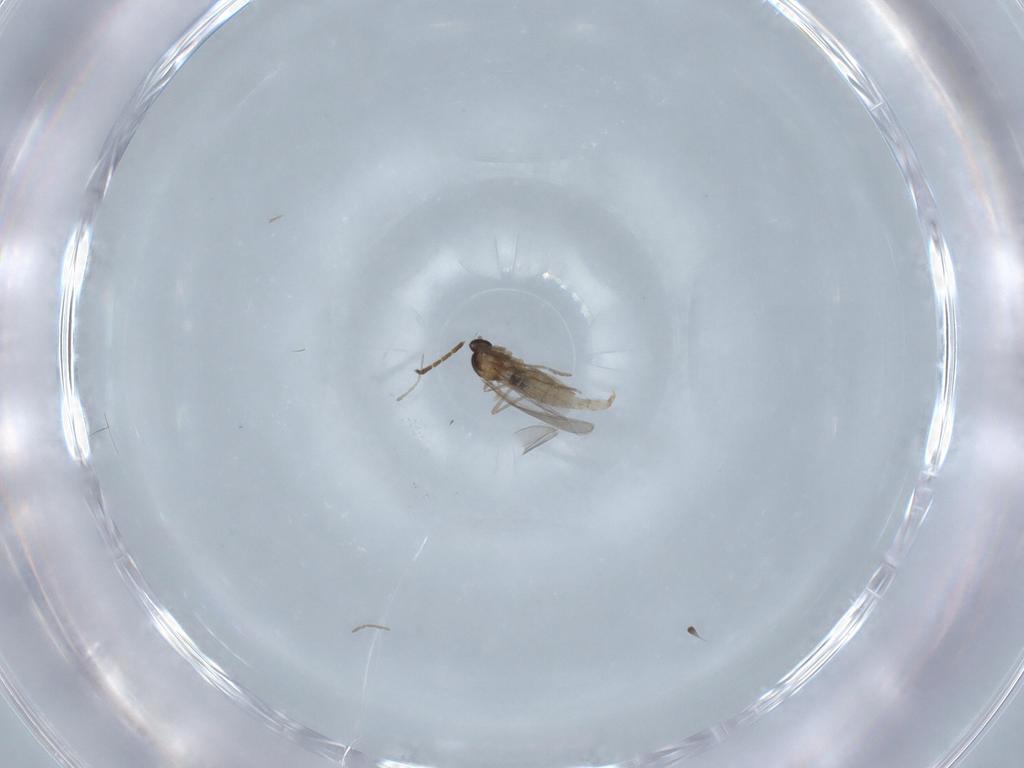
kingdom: Animalia
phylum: Arthropoda
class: Insecta
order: Diptera
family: Cecidomyiidae
